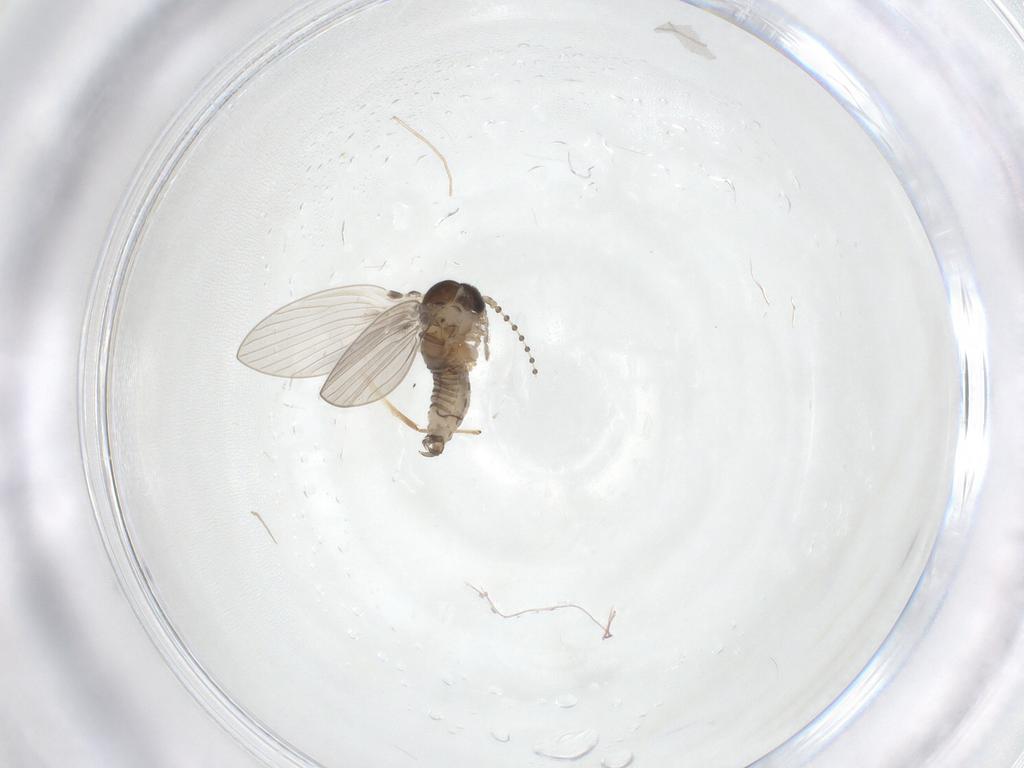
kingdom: Animalia
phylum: Arthropoda
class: Insecta
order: Diptera
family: Psychodidae
